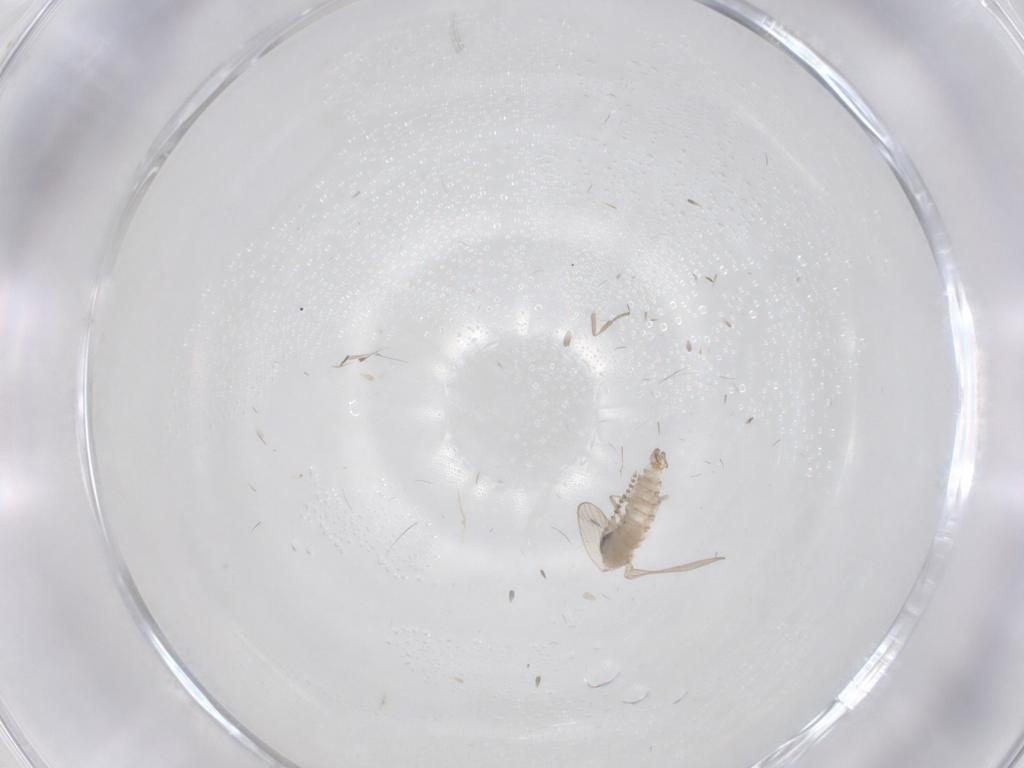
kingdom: Animalia
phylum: Arthropoda
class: Insecta
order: Diptera
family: Psychodidae
